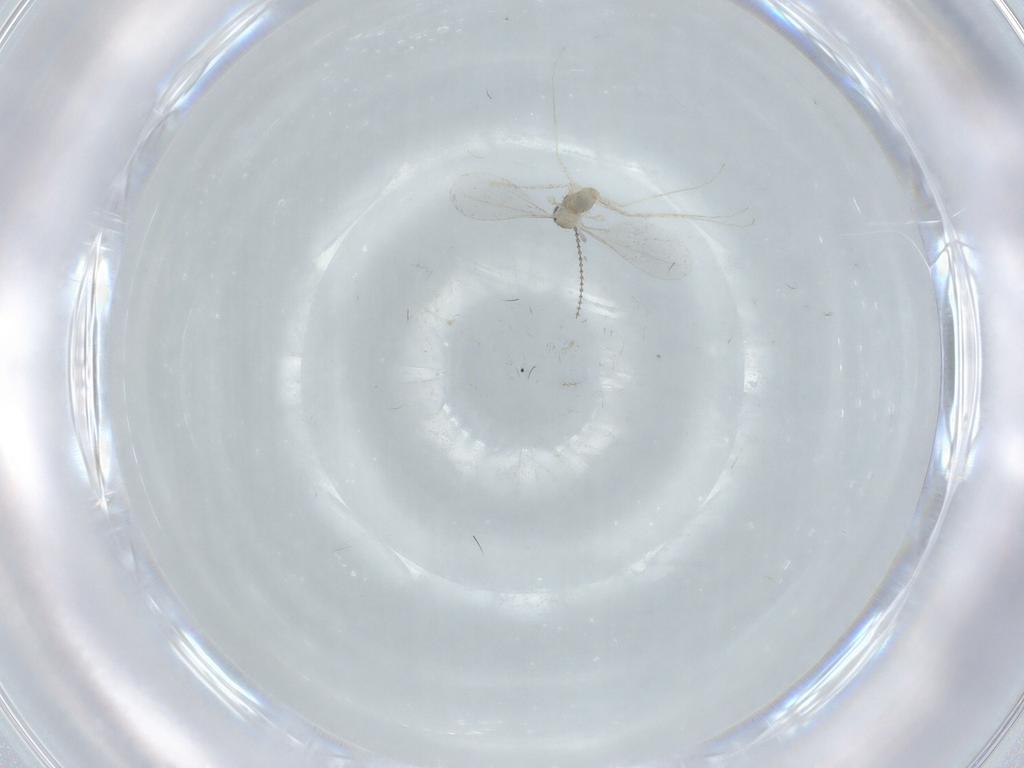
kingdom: Animalia
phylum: Arthropoda
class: Insecta
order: Diptera
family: Cecidomyiidae
